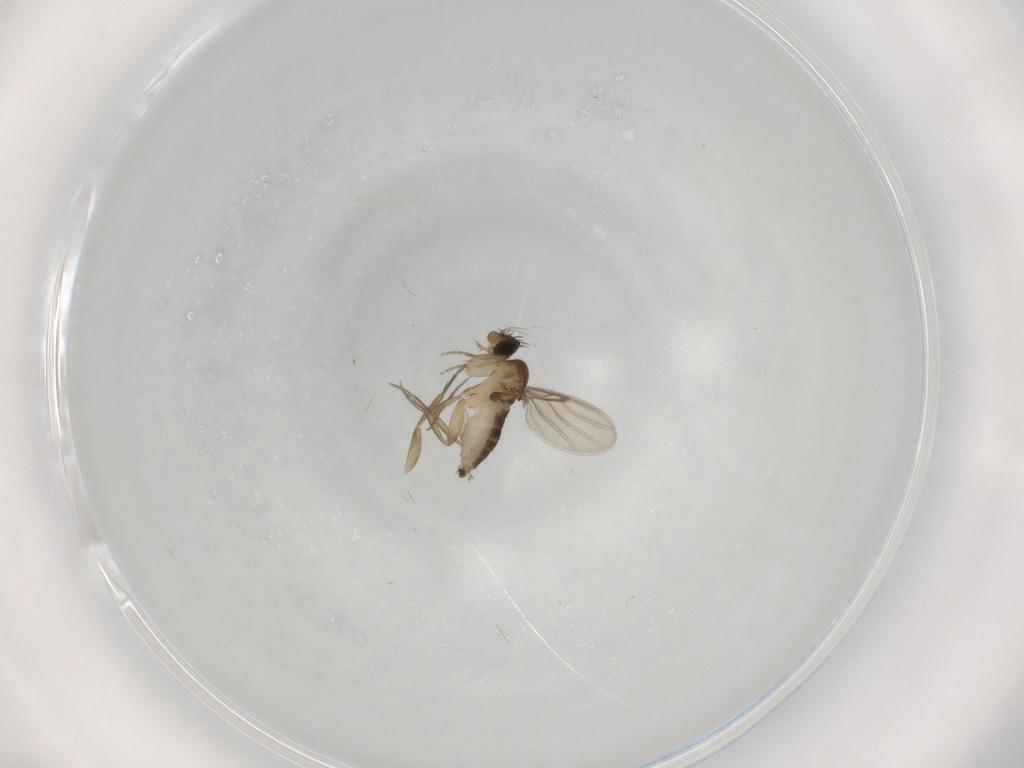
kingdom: Animalia
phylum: Arthropoda
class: Insecta
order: Diptera
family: Phoridae
